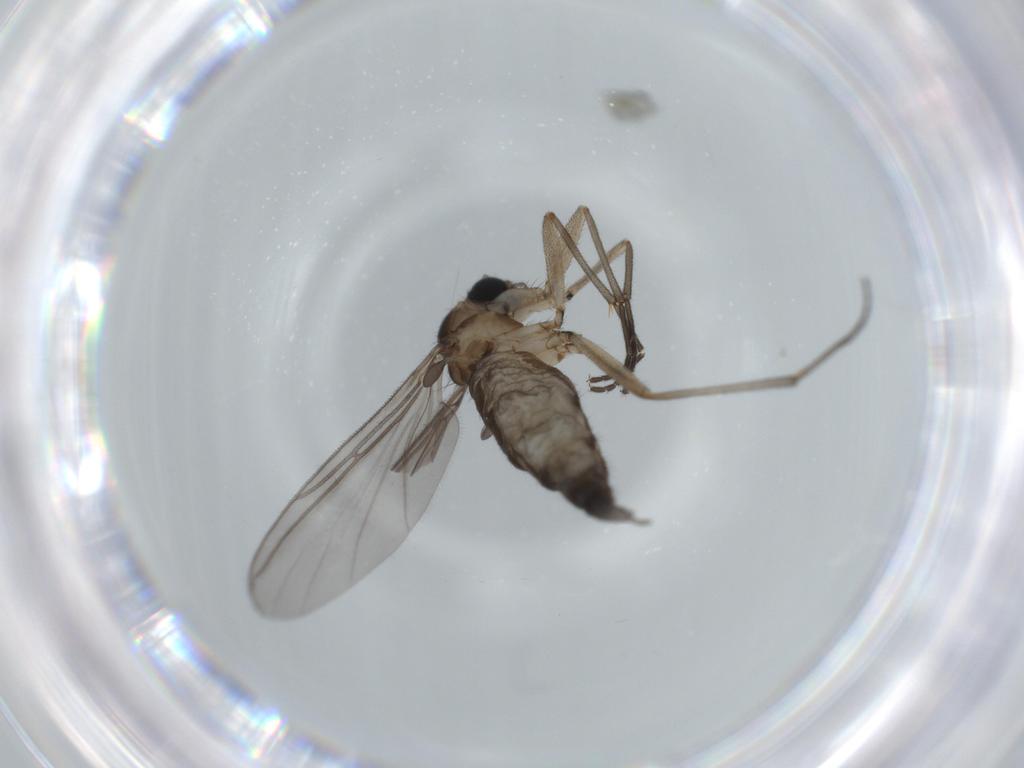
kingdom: Animalia
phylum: Arthropoda
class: Insecta
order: Diptera
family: Sciaridae
